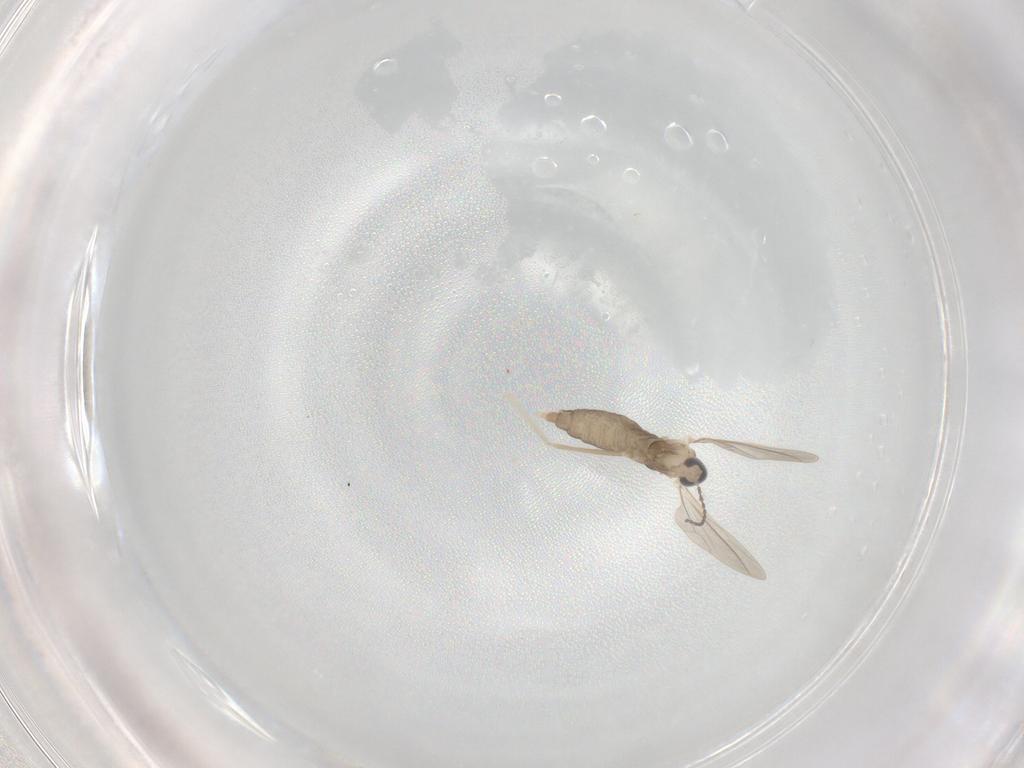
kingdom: Animalia
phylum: Arthropoda
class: Insecta
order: Diptera
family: Cecidomyiidae
